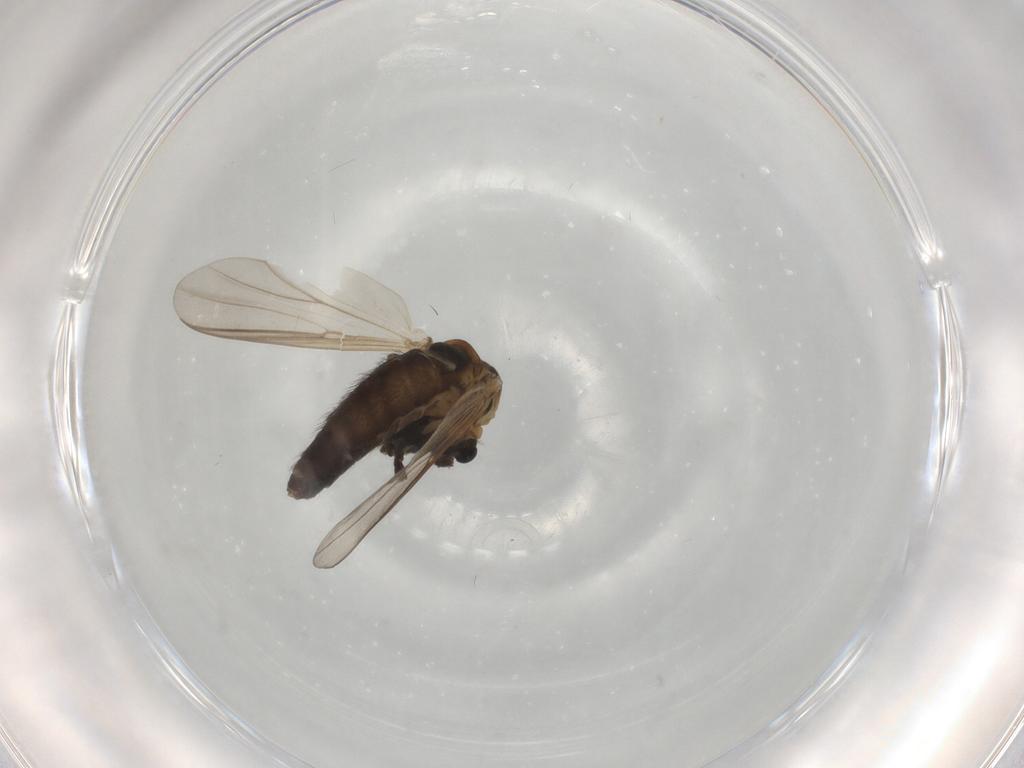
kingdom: Animalia
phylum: Arthropoda
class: Insecta
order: Diptera
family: Chironomidae
